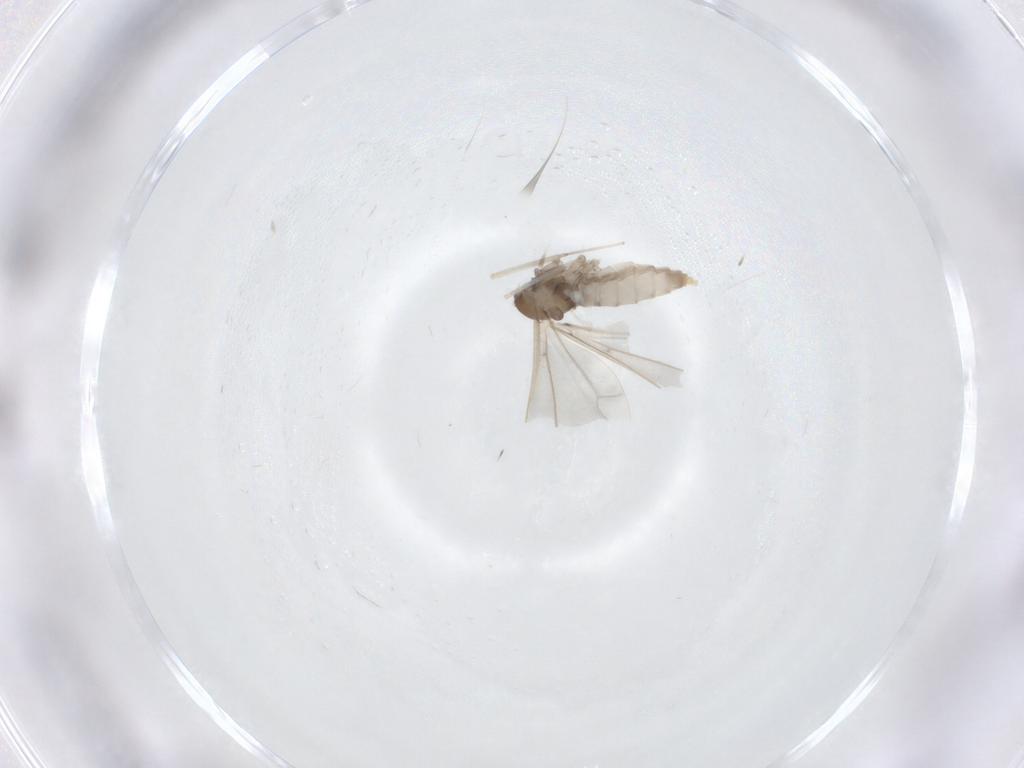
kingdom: Animalia
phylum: Arthropoda
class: Insecta
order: Diptera
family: Cecidomyiidae
